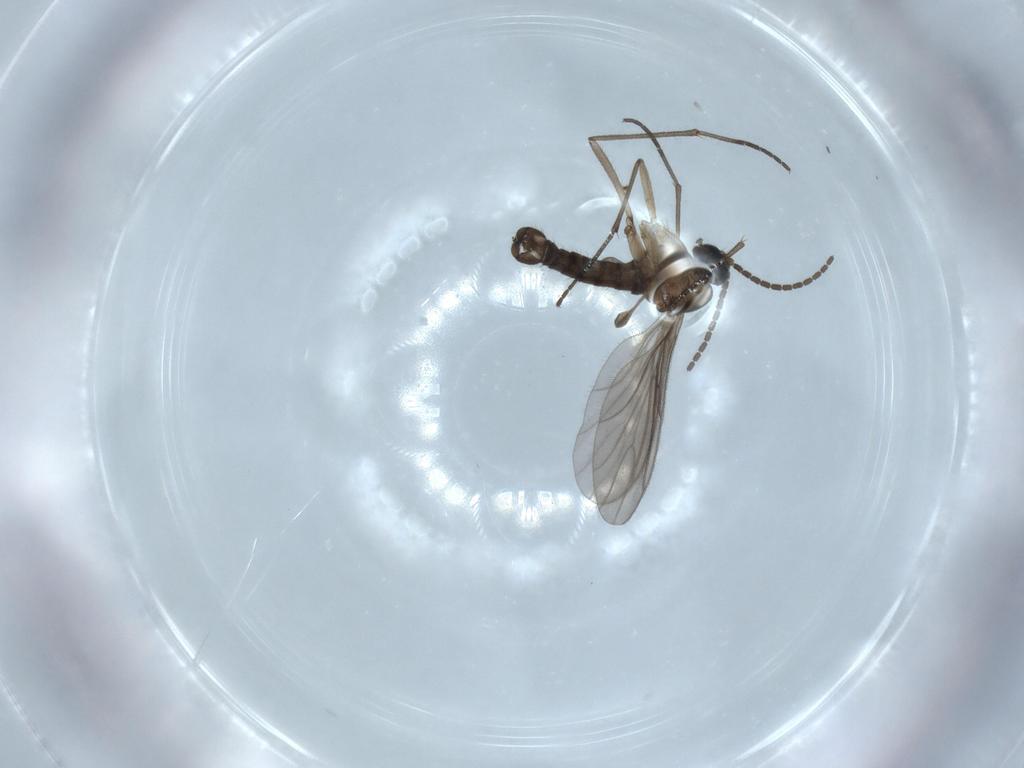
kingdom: Animalia
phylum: Arthropoda
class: Insecta
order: Diptera
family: Sciaridae
